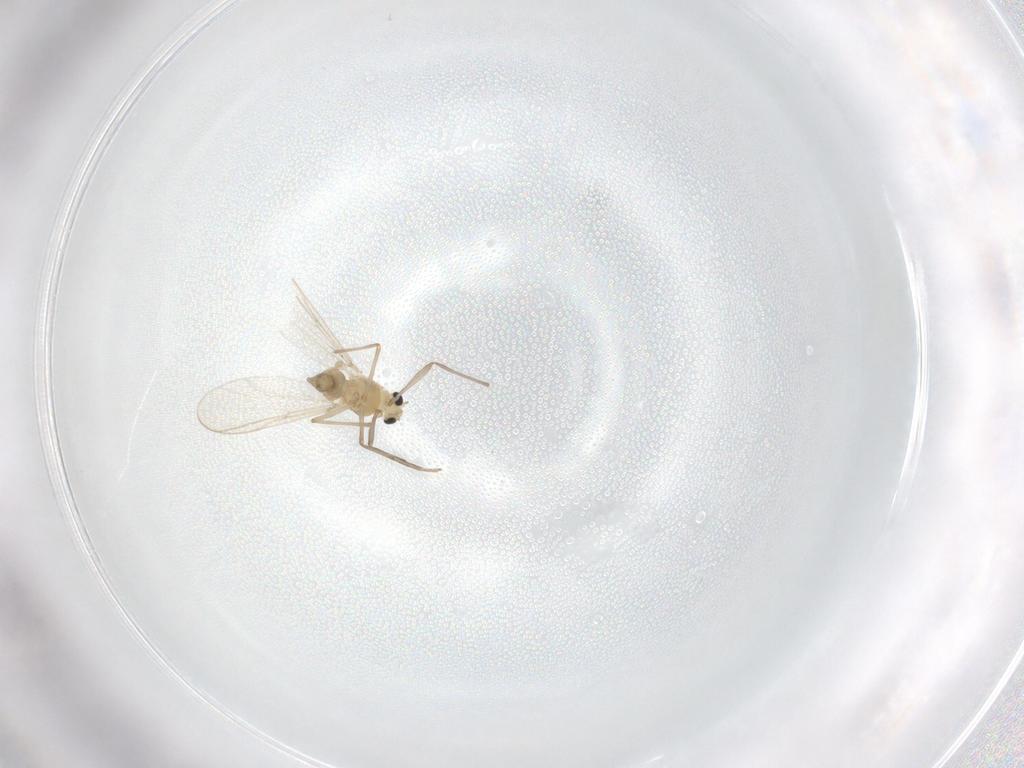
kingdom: Animalia
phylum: Arthropoda
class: Insecta
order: Diptera
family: Chironomidae
